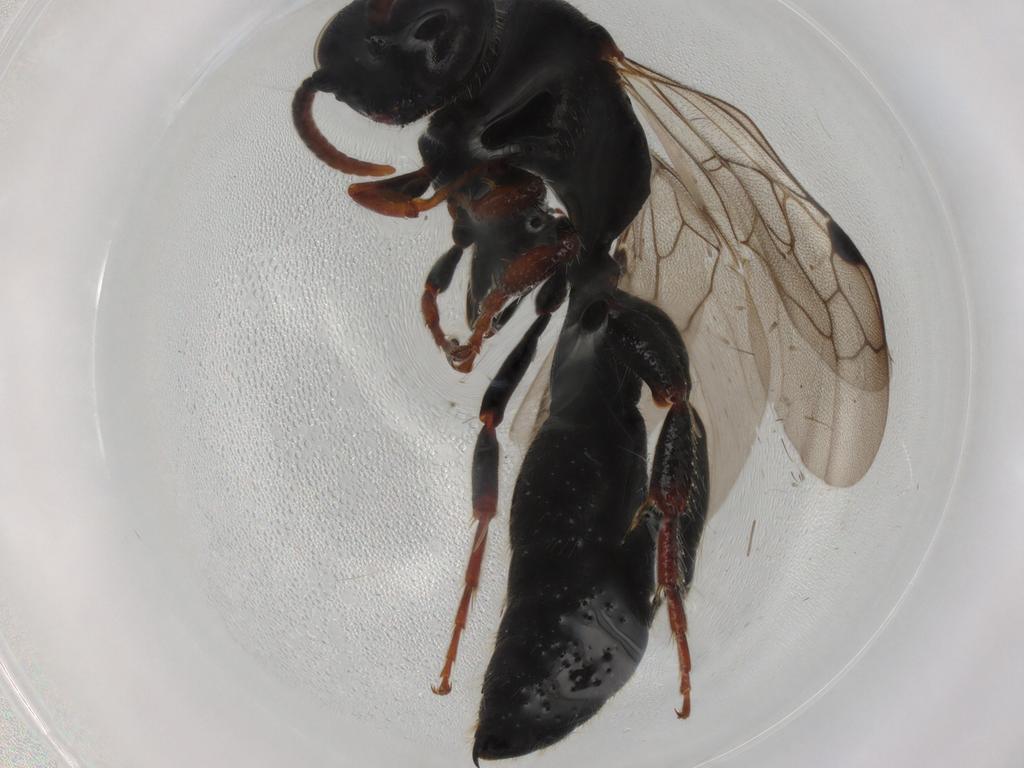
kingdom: Animalia
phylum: Arthropoda
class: Insecta
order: Hymenoptera
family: Tiphiidae
